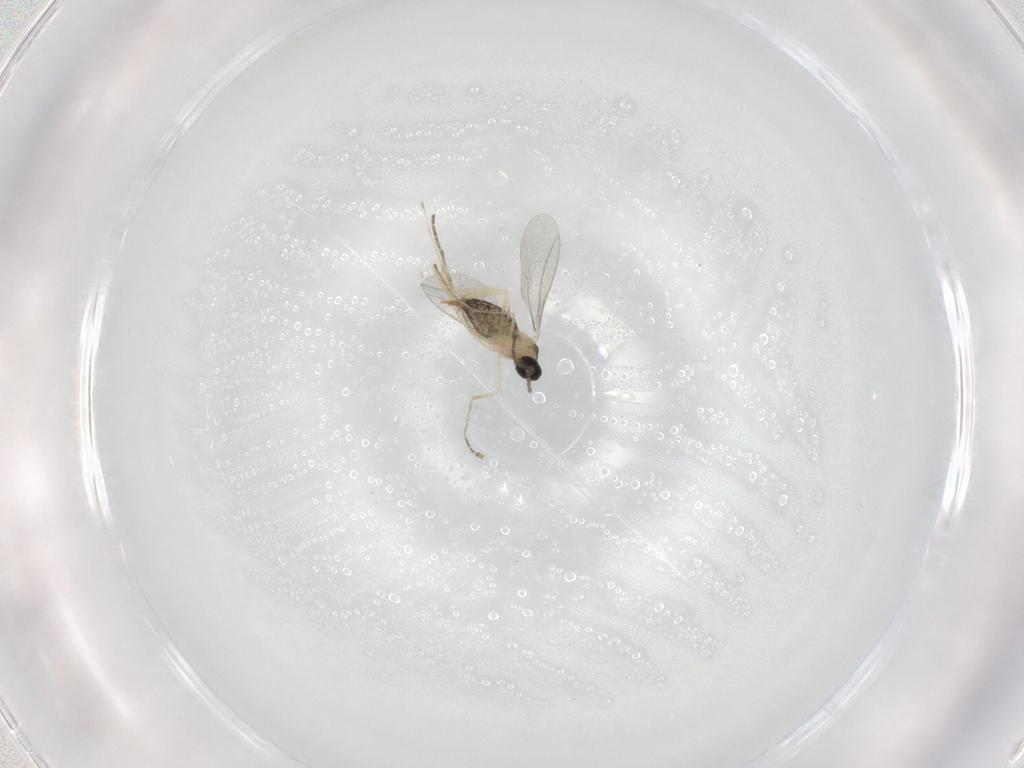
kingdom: Animalia
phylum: Arthropoda
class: Insecta
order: Diptera
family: Cecidomyiidae
